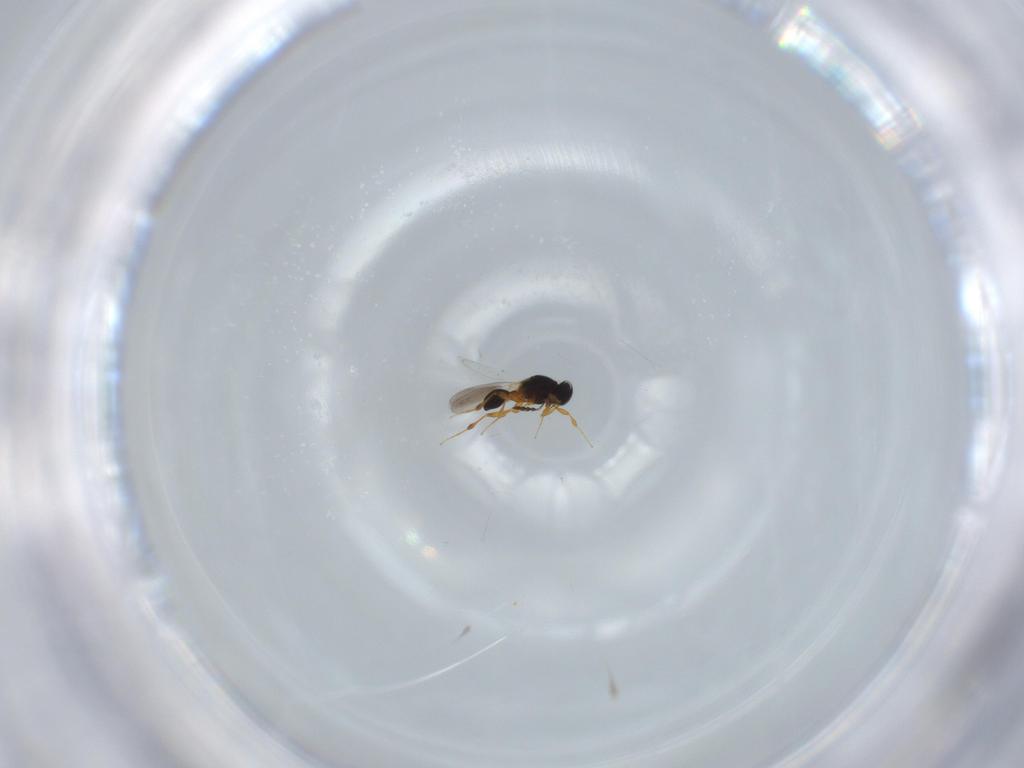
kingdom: Animalia
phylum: Arthropoda
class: Insecta
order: Hymenoptera
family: Platygastridae
